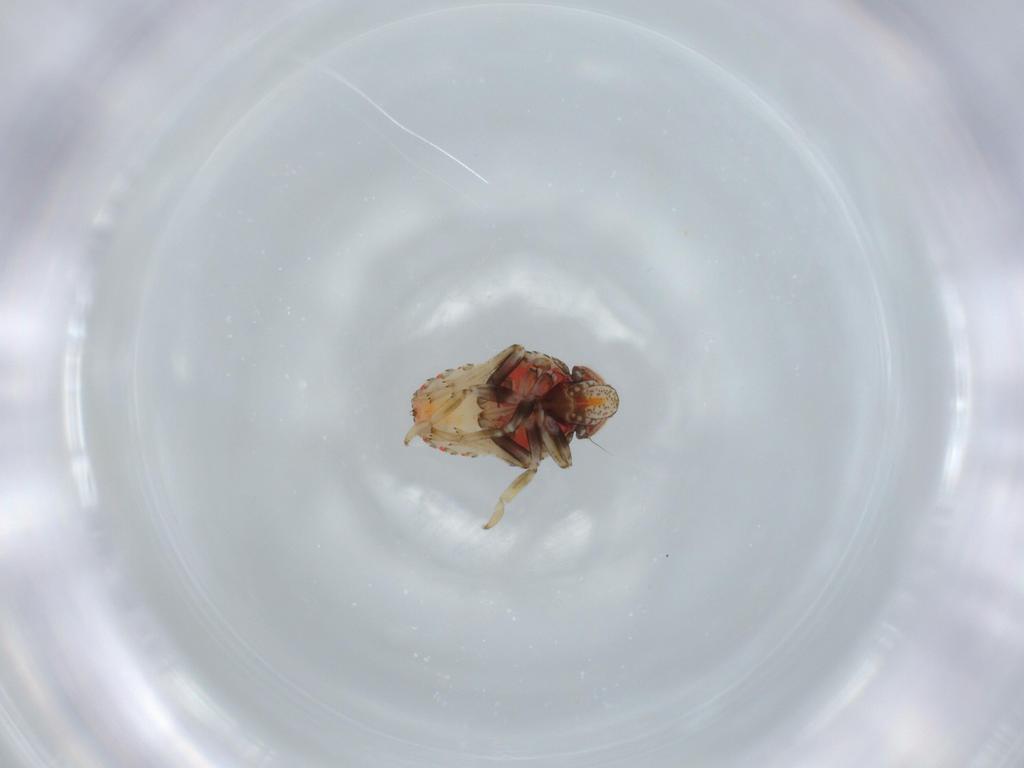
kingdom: Animalia
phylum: Arthropoda
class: Insecta
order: Hemiptera
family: Issidae
